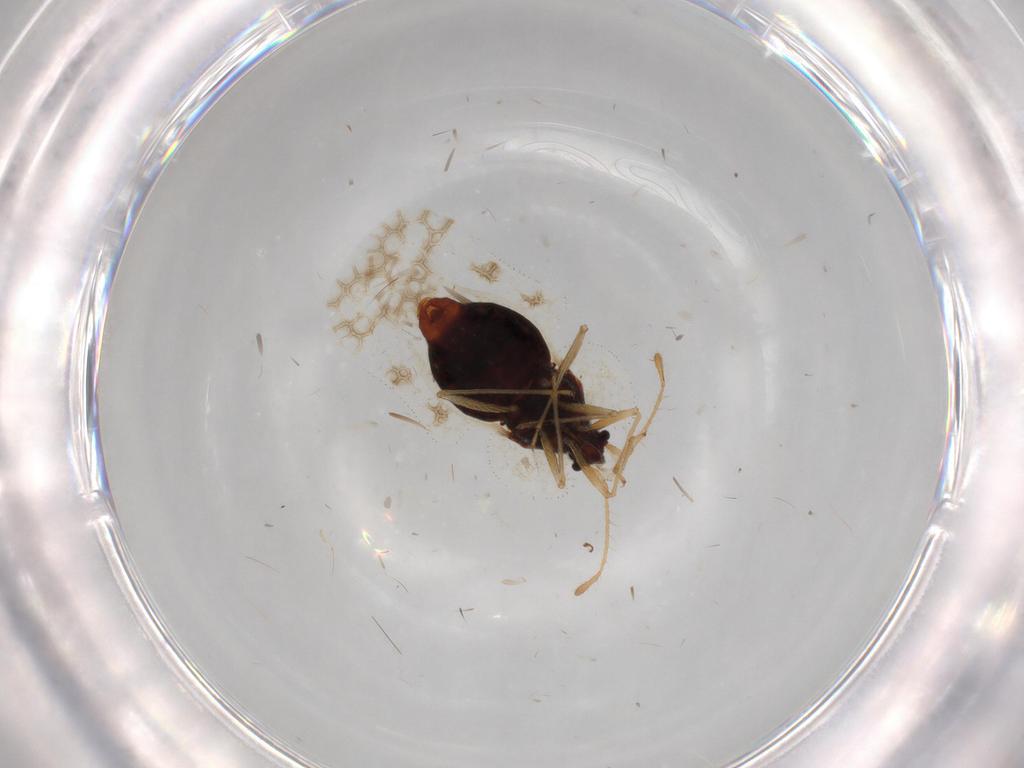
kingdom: Animalia
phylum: Arthropoda
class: Insecta
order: Hemiptera
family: Tingidae
